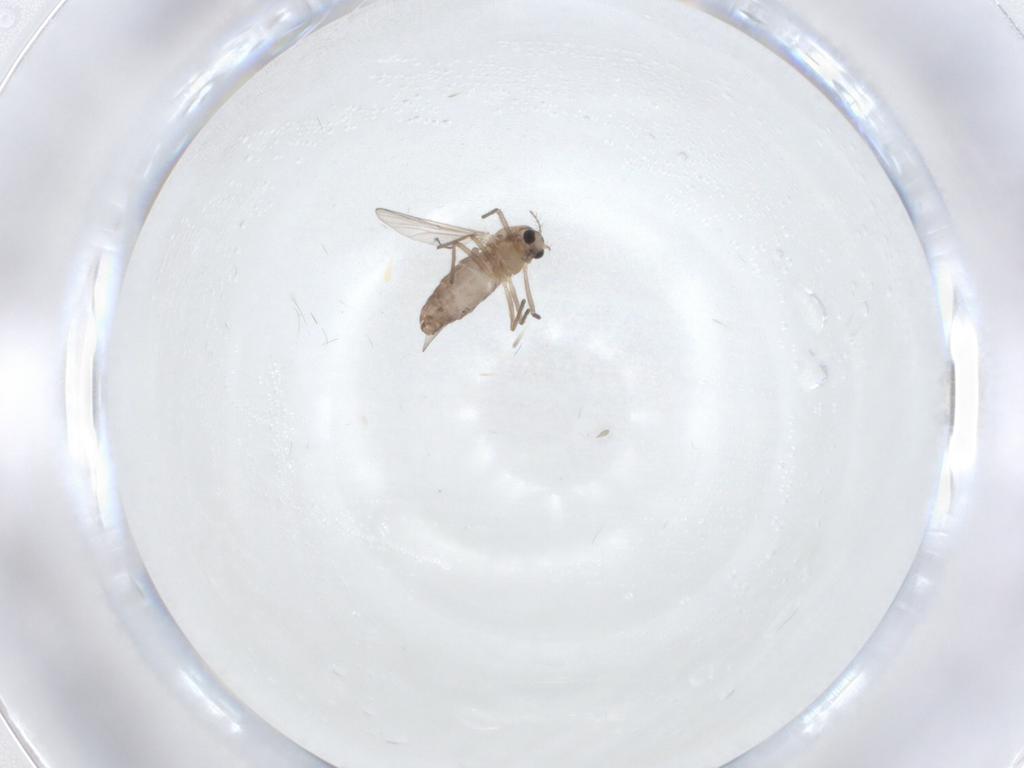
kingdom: Animalia
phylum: Arthropoda
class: Insecta
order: Diptera
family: Chironomidae
